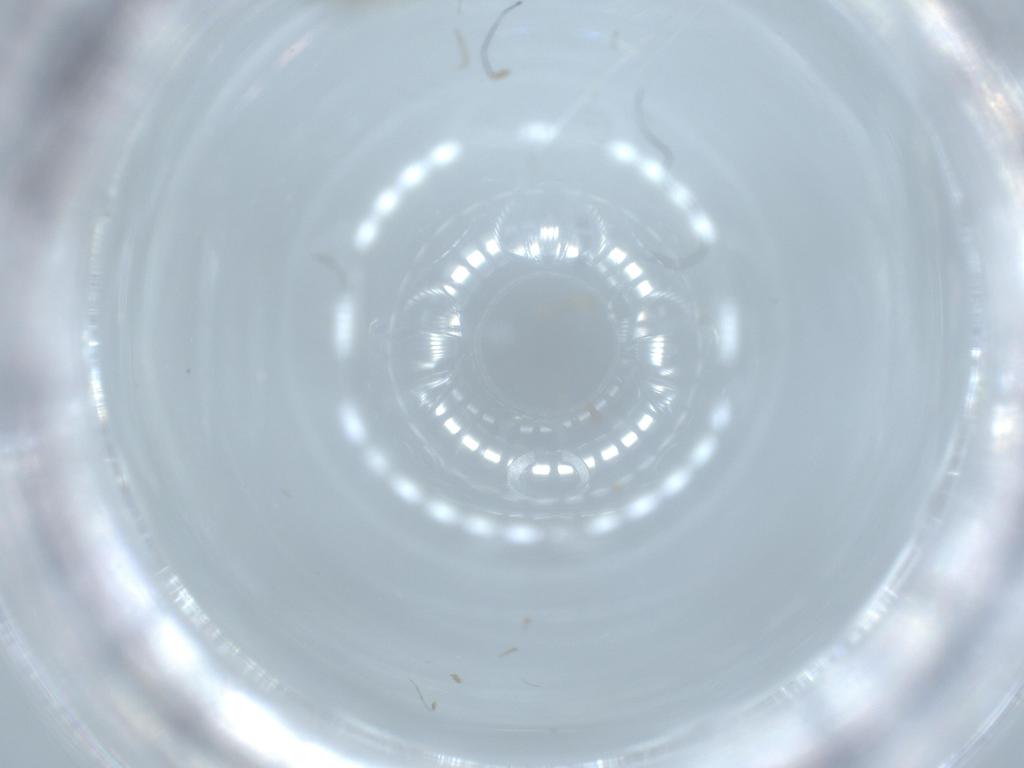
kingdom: Animalia
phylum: Arthropoda
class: Insecta
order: Diptera
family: Chironomidae
